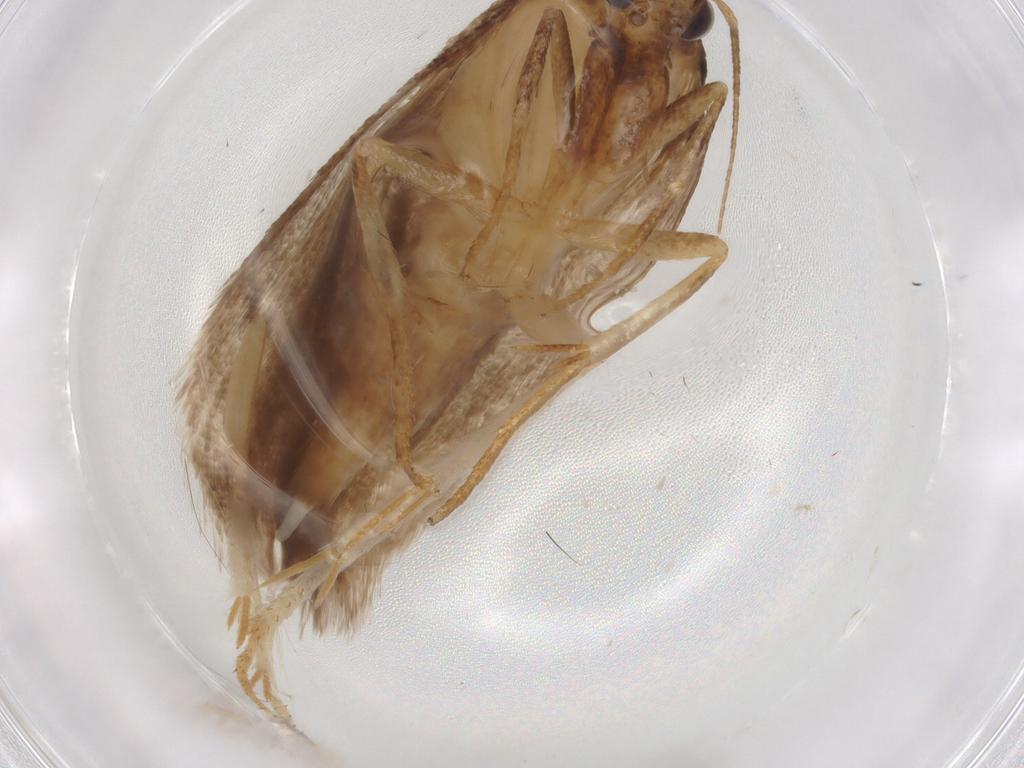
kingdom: Animalia
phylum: Arthropoda
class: Insecta
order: Lepidoptera
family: Gelechiidae
